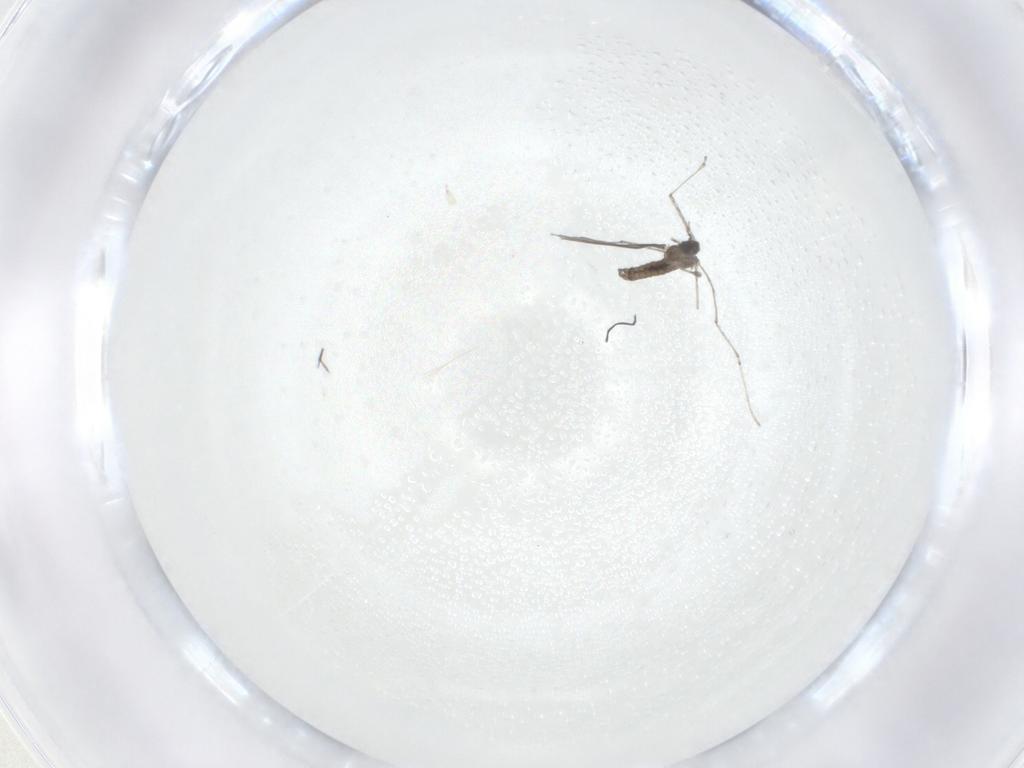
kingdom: Animalia
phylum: Arthropoda
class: Insecta
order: Diptera
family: Cecidomyiidae
